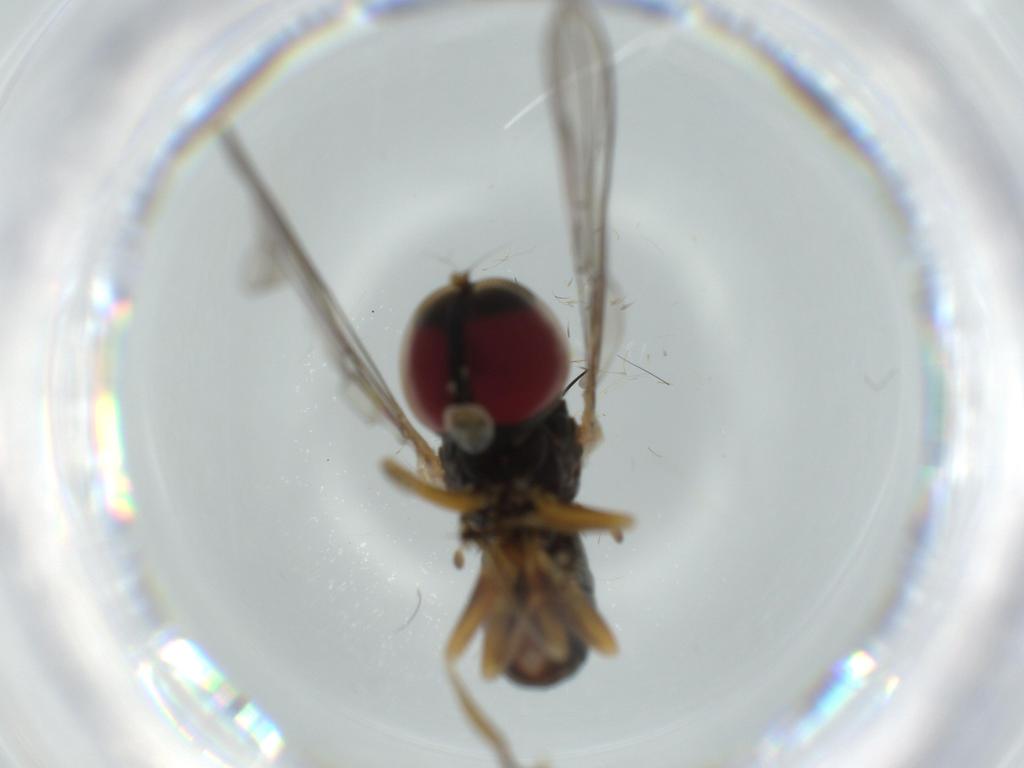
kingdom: Animalia
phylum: Arthropoda
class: Insecta
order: Diptera
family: Pipunculidae
